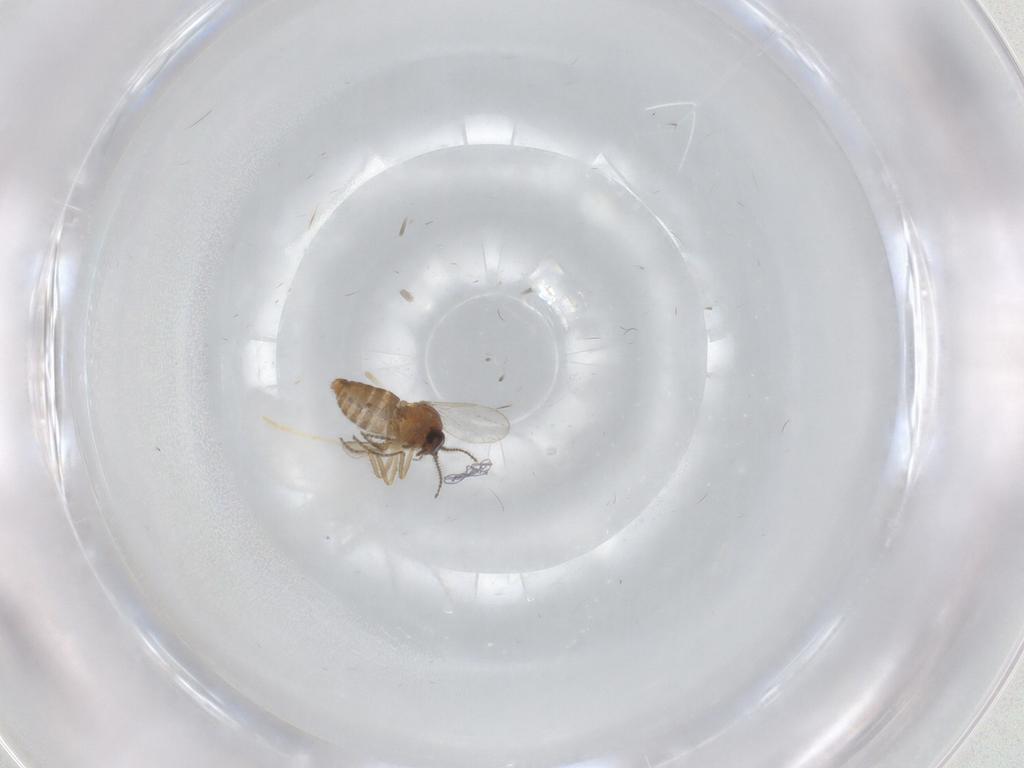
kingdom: Animalia
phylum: Arthropoda
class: Insecta
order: Diptera
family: Ceratopogonidae
